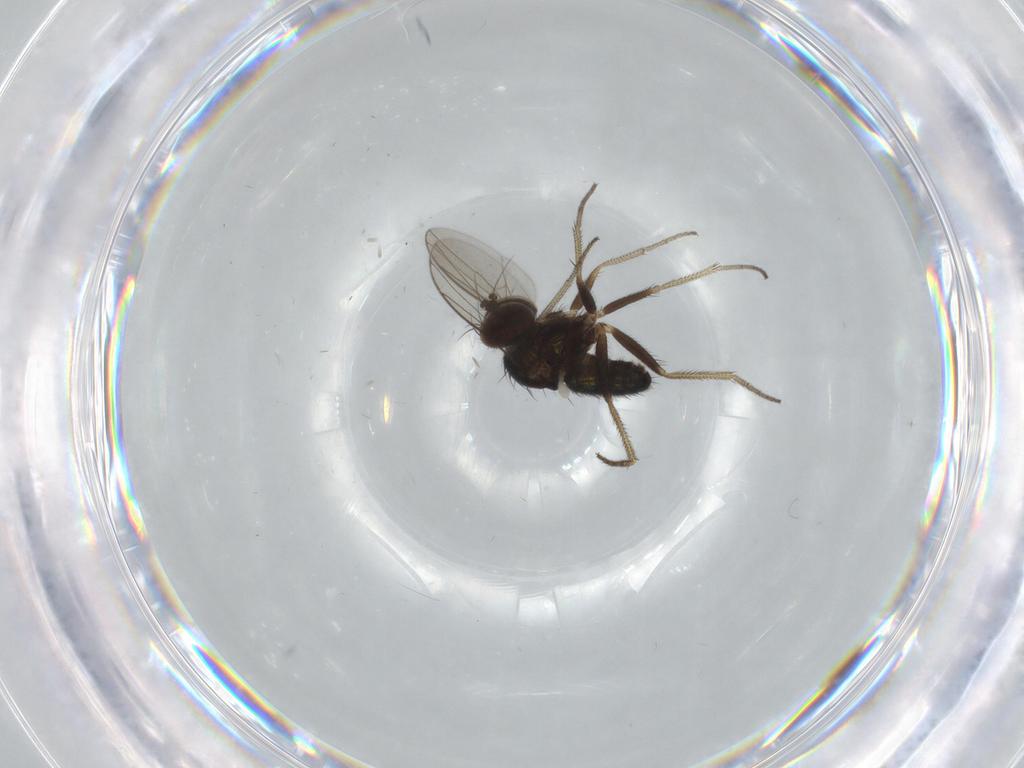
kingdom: Animalia
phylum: Arthropoda
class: Insecta
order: Diptera
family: Dolichopodidae
